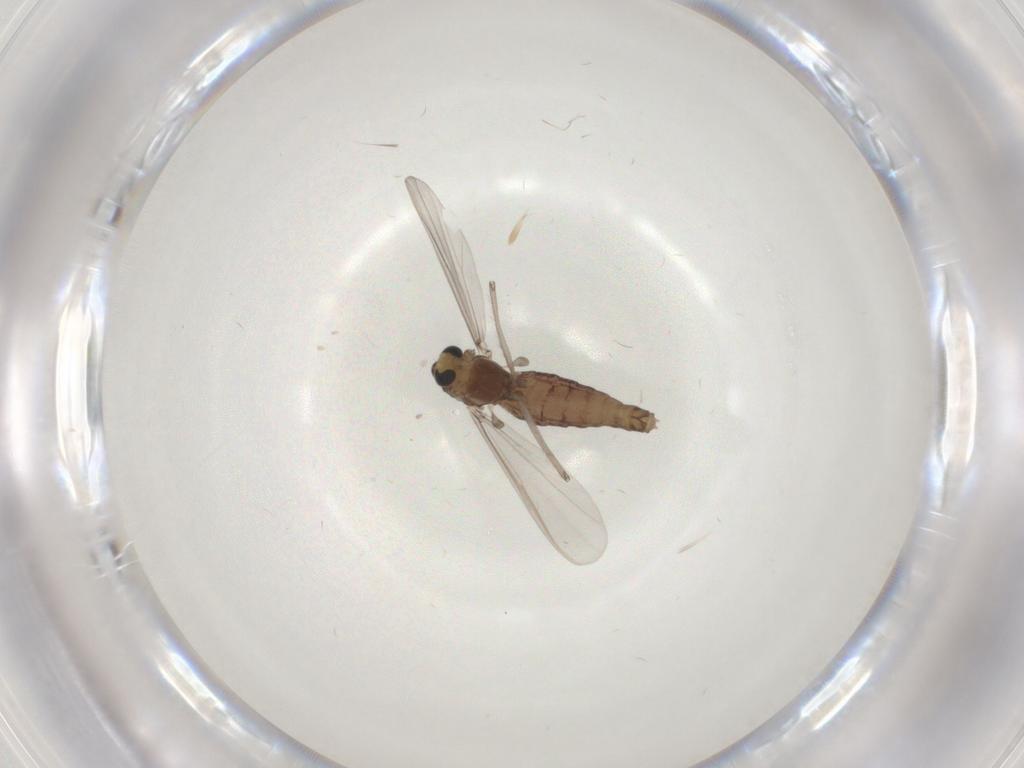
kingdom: Animalia
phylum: Arthropoda
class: Insecta
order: Diptera
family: Chironomidae
